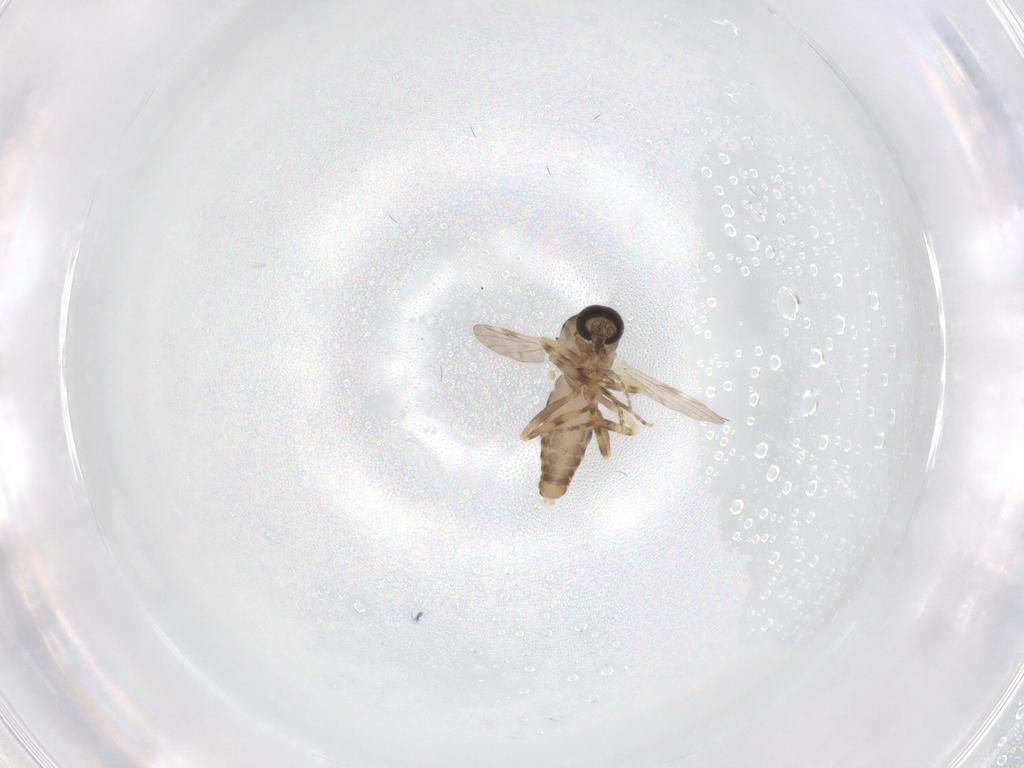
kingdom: Animalia
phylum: Arthropoda
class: Insecta
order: Diptera
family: Ceratopogonidae
